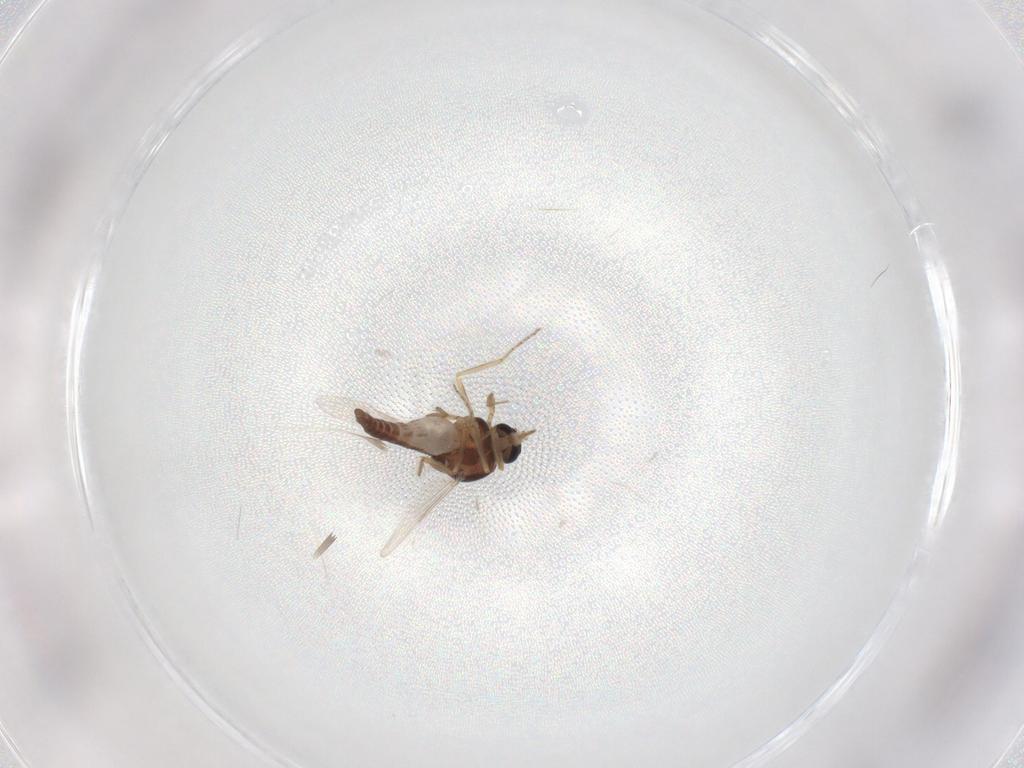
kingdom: Animalia
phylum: Arthropoda
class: Insecta
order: Diptera
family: Ceratopogonidae
